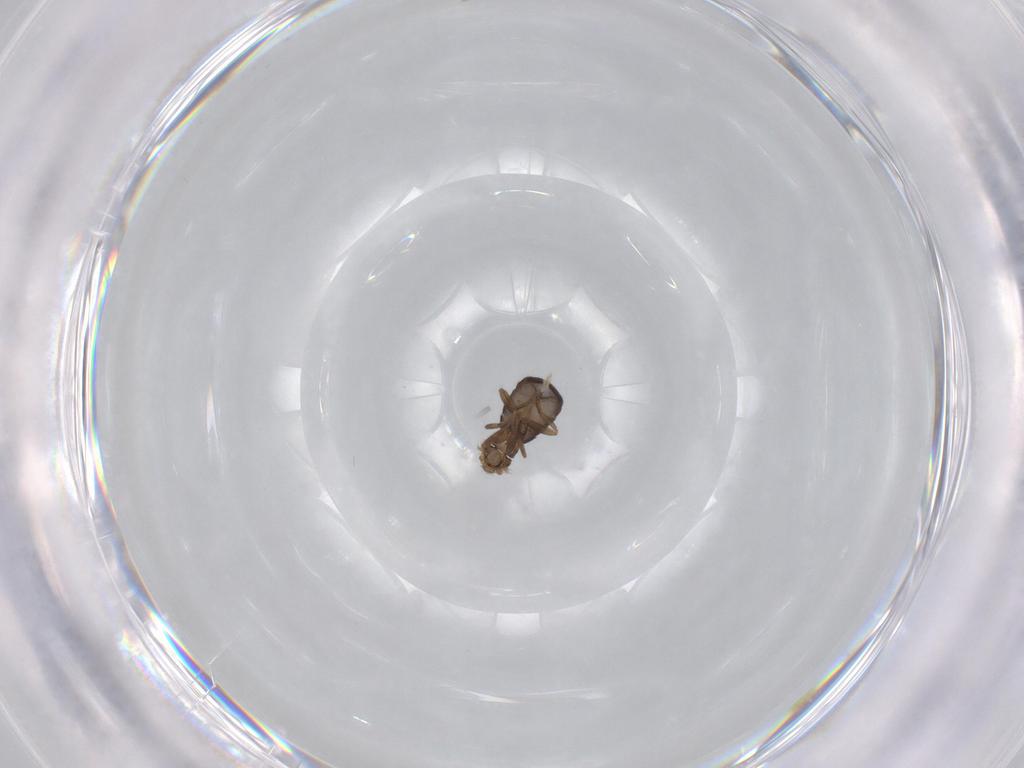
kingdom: Animalia
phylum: Arthropoda
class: Insecta
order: Diptera
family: Chironomidae
